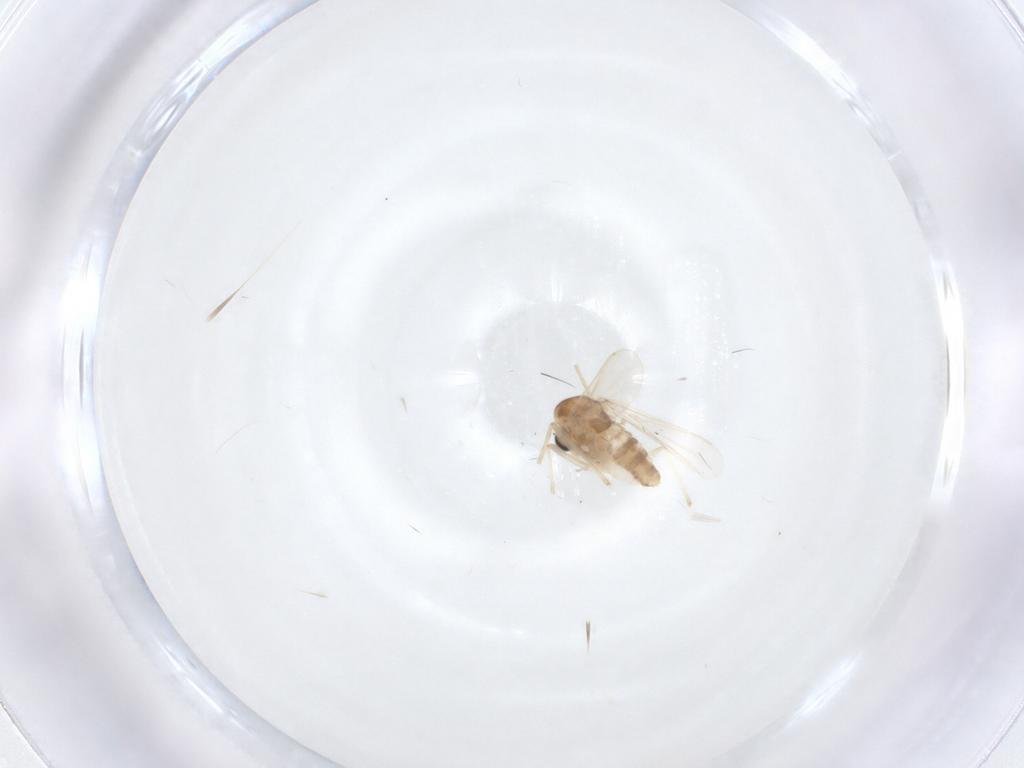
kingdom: Animalia
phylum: Arthropoda
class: Insecta
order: Diptera
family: Chironomidae
